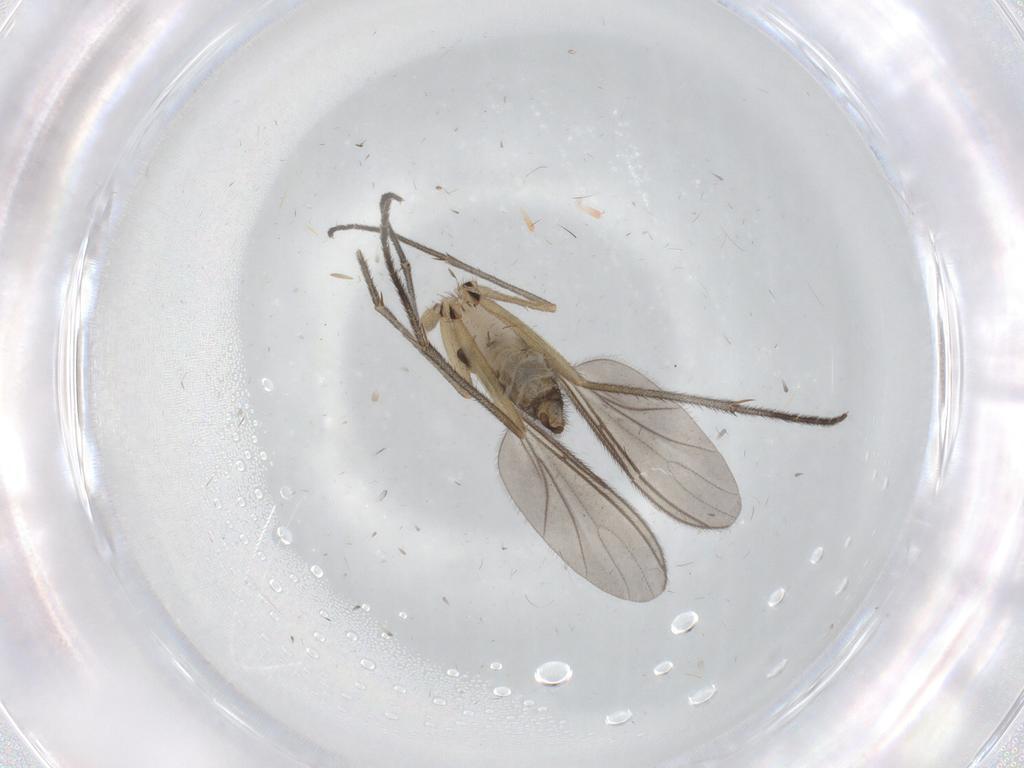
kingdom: Animalia
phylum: Arthropoda
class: Insecta
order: Diptera
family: Sciaridae
